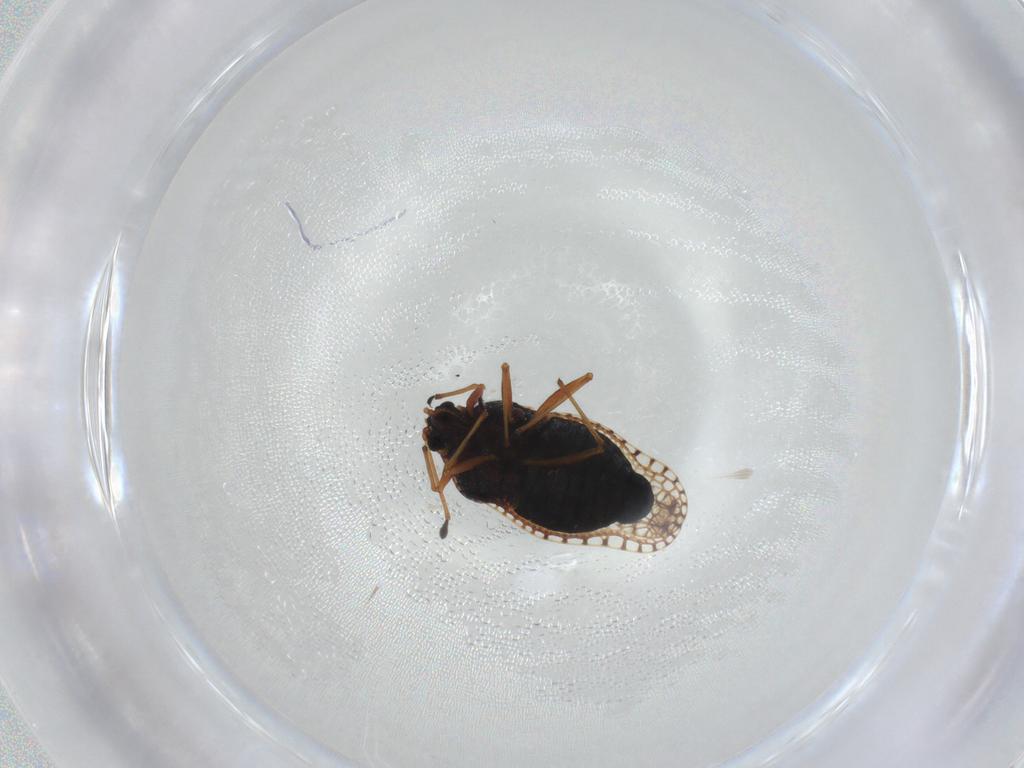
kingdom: Animalia
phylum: Arthropoda
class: Insecta
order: Hemiptera
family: Tingidae
